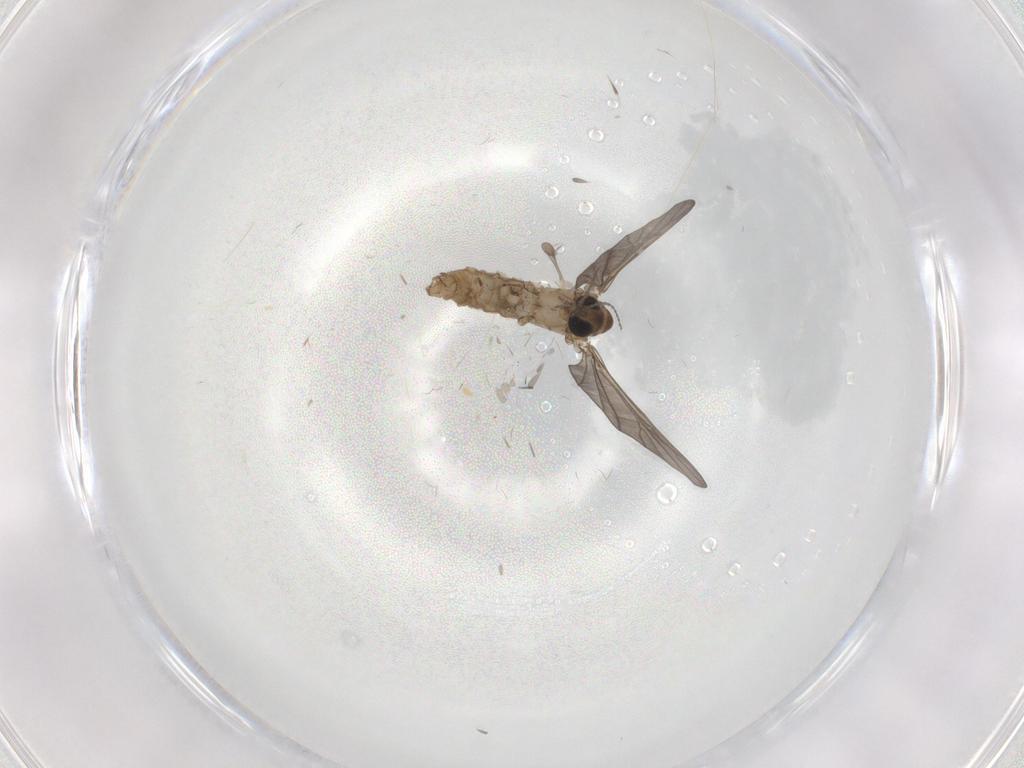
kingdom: Animalia
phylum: Arthropoda
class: Insecta
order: Diptera
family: Limoniidae
